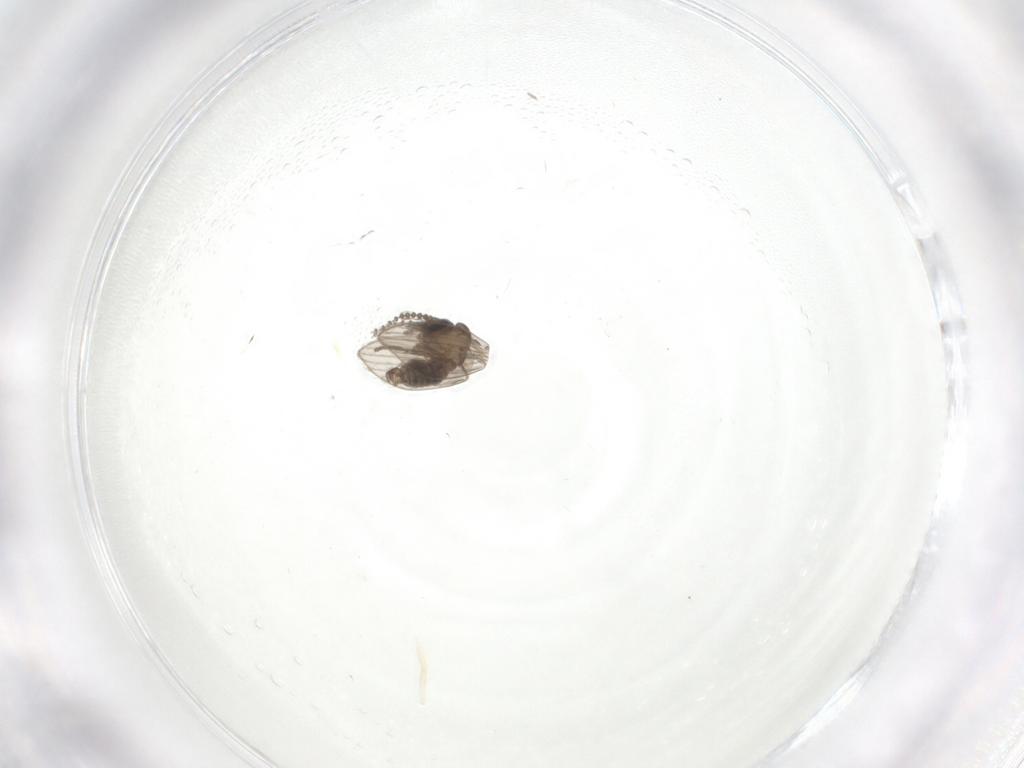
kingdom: Animalia
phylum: Arthropoda
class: Insecta
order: Diptera
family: Psychodidae
